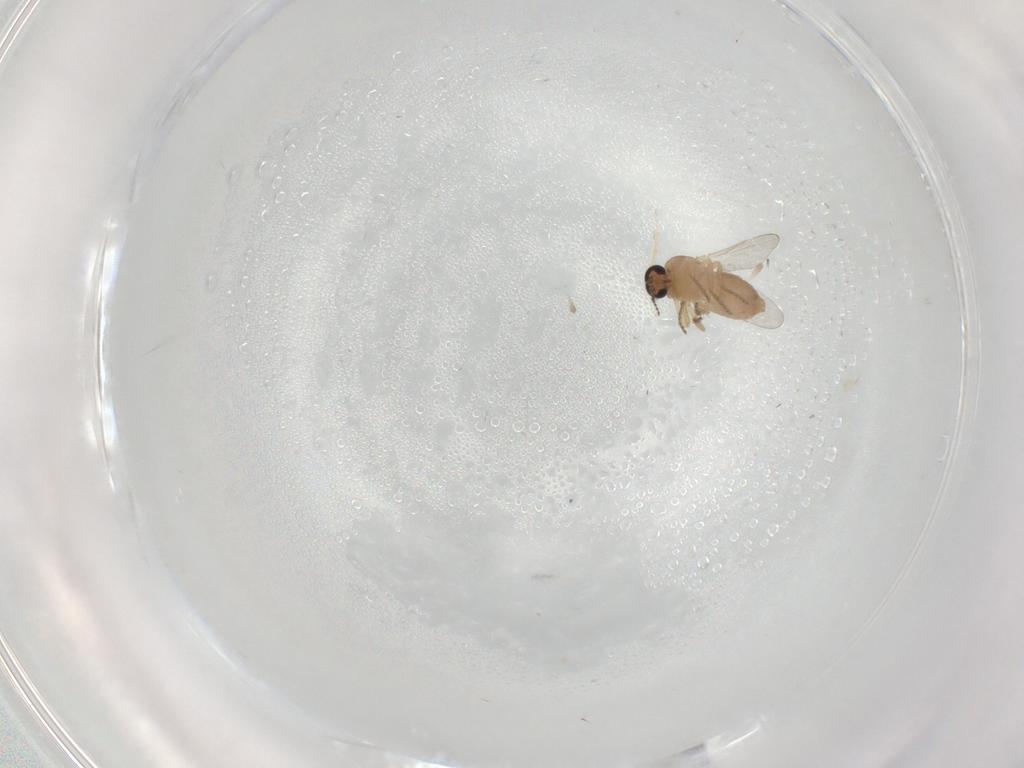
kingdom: Animalia
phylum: Arthropoda
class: Insecta
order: Diptera
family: Ceratopogonidae
